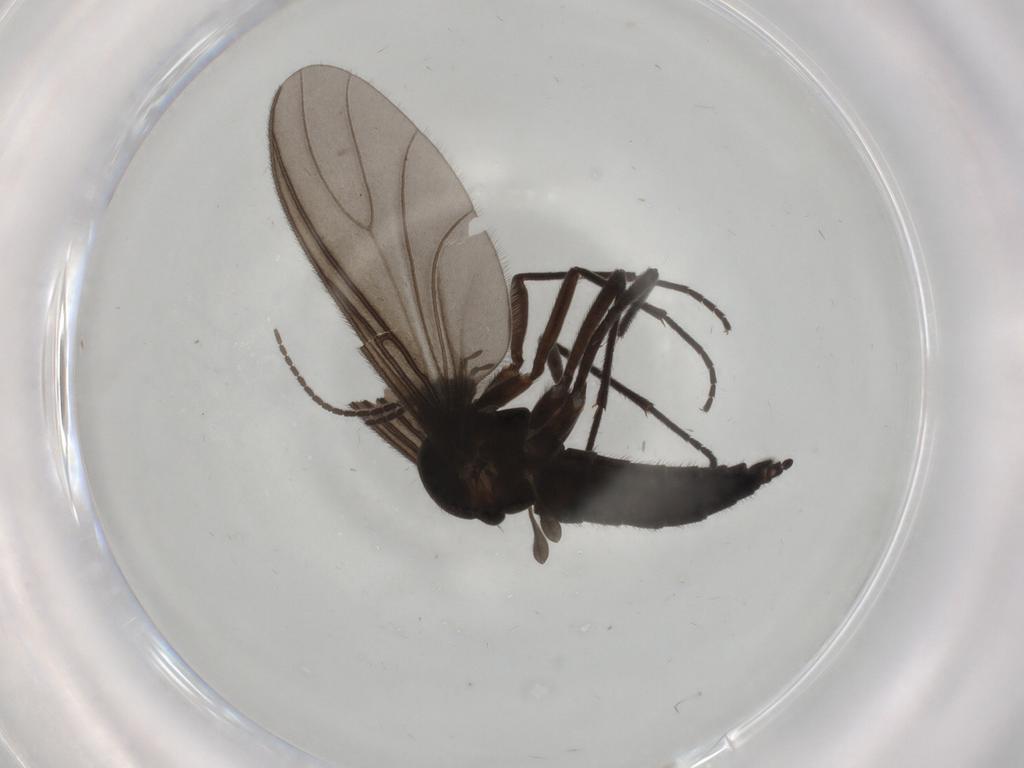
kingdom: Animalia
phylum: Arthropoda
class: Insecta
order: Diptera
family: Sciaridae
